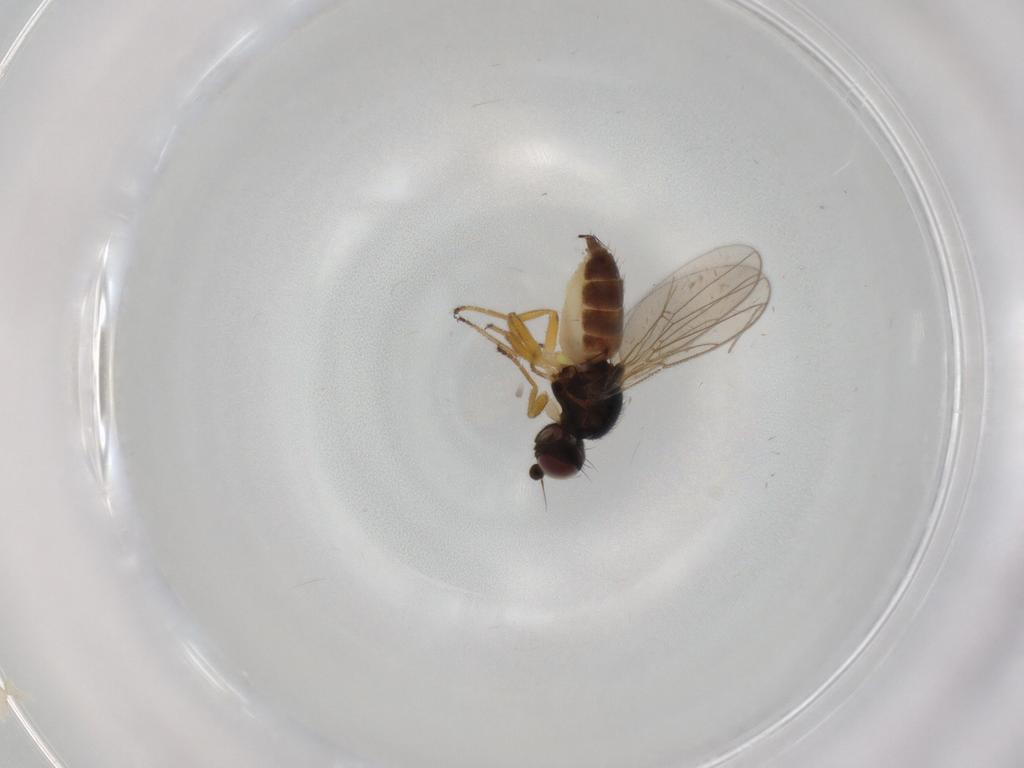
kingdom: Animalia
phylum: Arthropoda
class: Insecta
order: Diptera
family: Chloropidae
